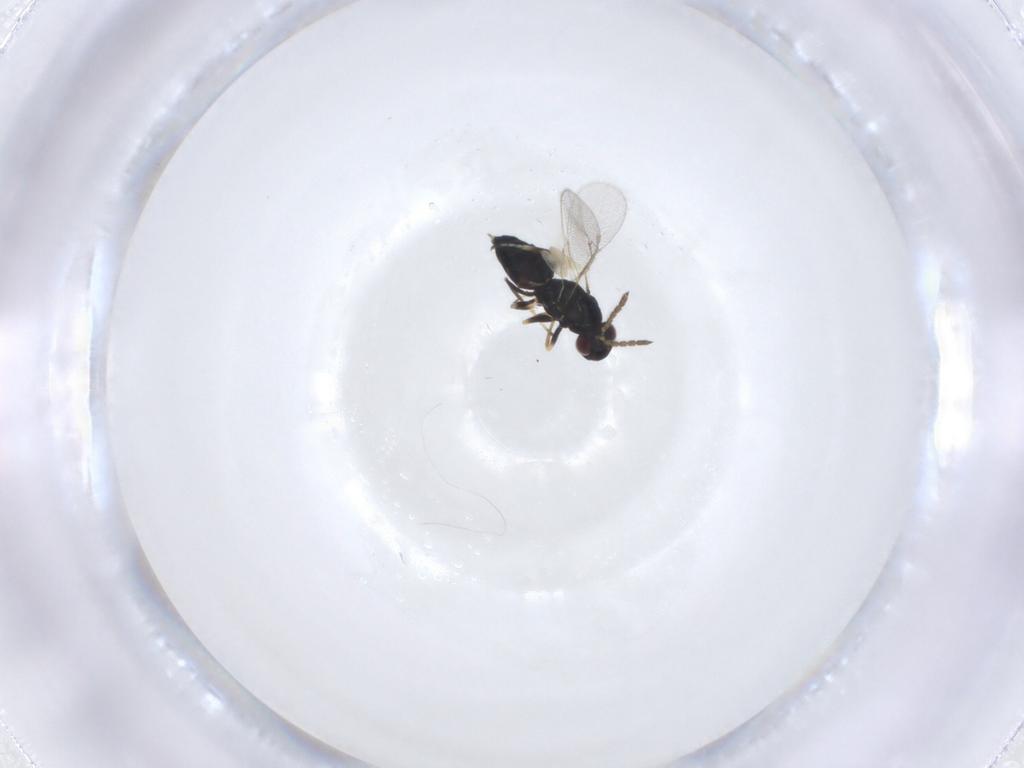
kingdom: Animalia
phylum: Arthropoda
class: Insecta
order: Hymenoptera
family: Eulophidae
